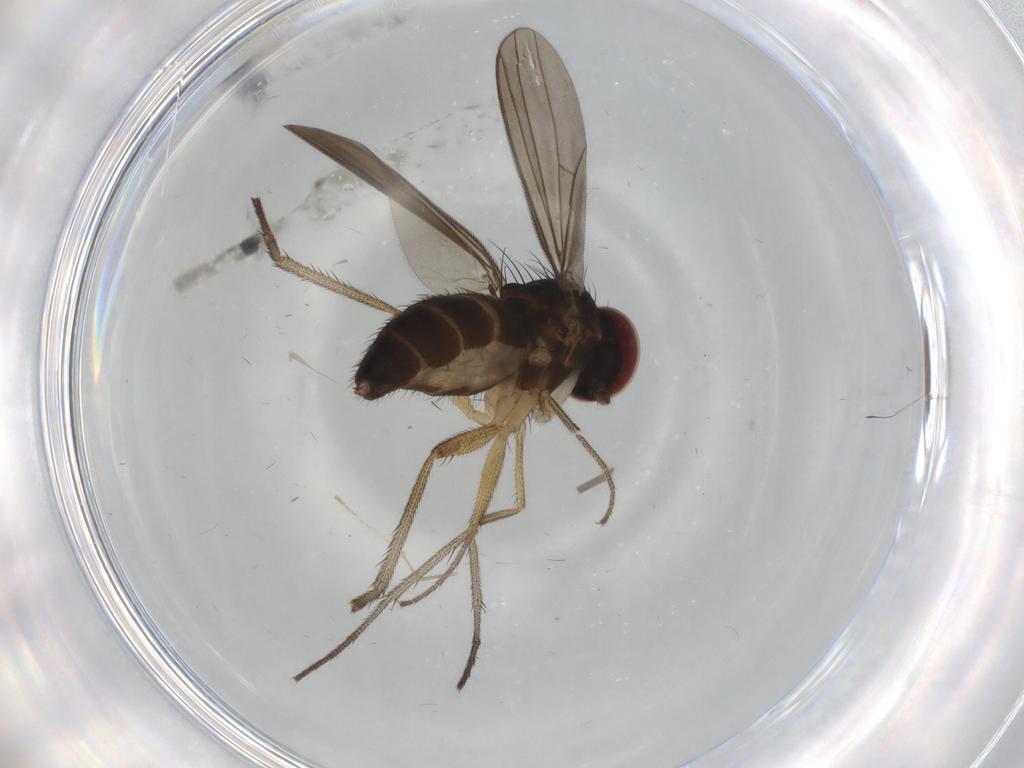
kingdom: Animalia
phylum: Arthropoda
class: Insecta
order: Diptera
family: Dolichopodidae
